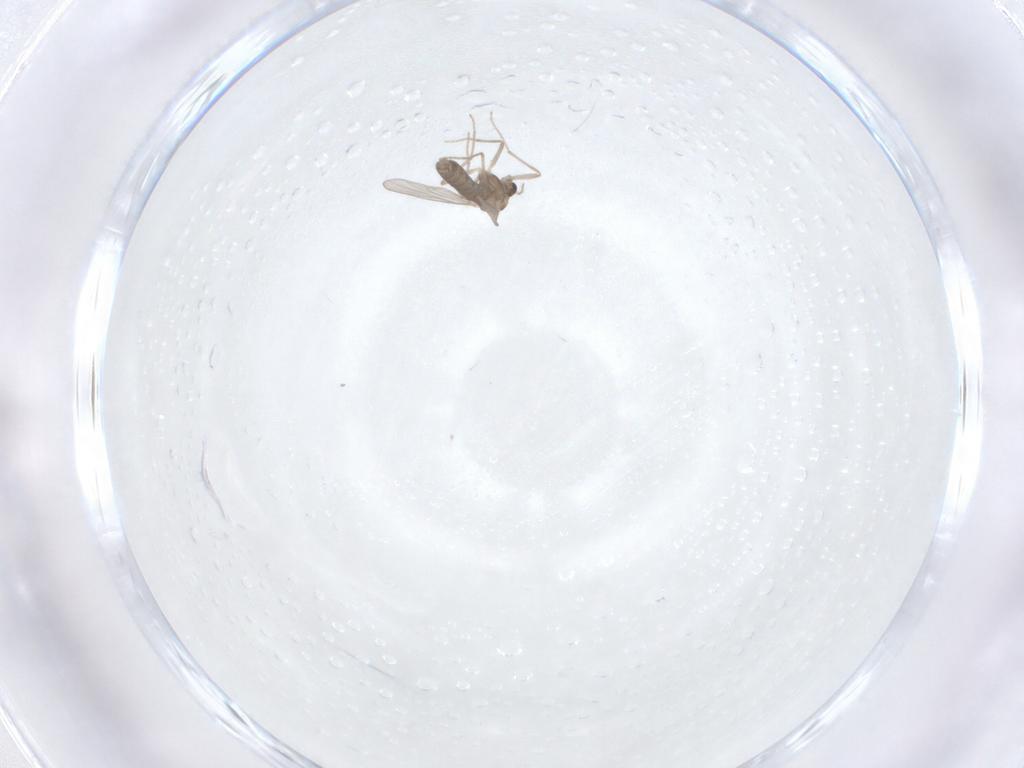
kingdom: Animalia
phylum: Arthropoda
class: Insecta
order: Diptera
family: Chironomidae
